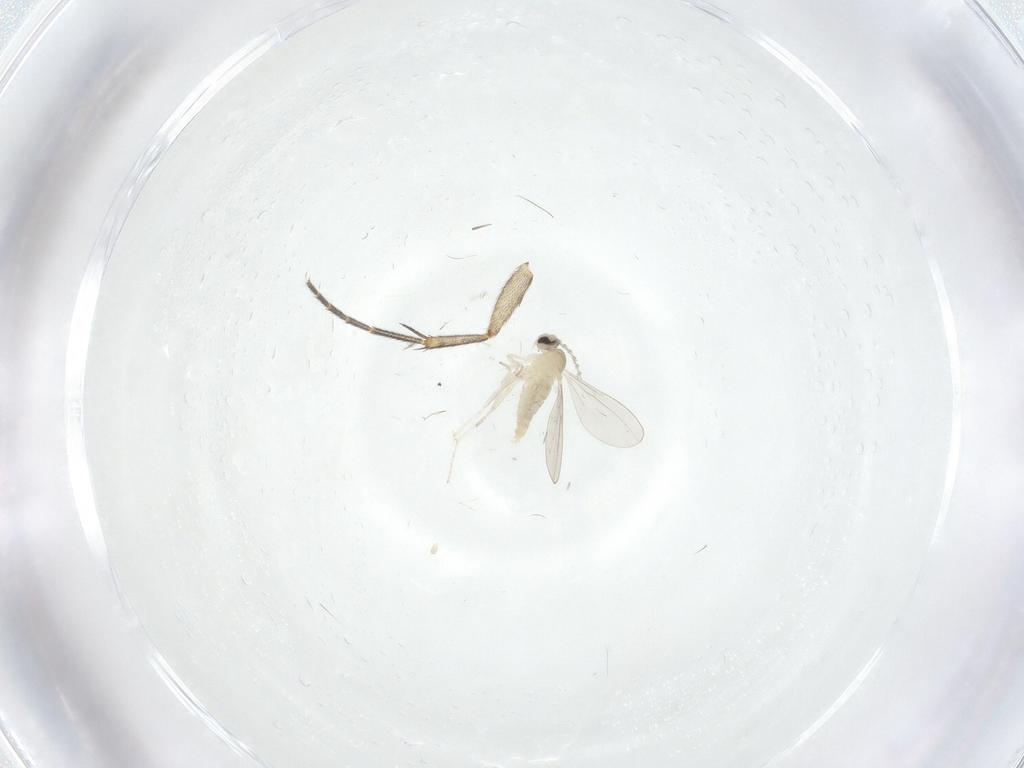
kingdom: Animalia
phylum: Arthropoda
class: Insecta
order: Diptera
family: Cecidomyiidae
